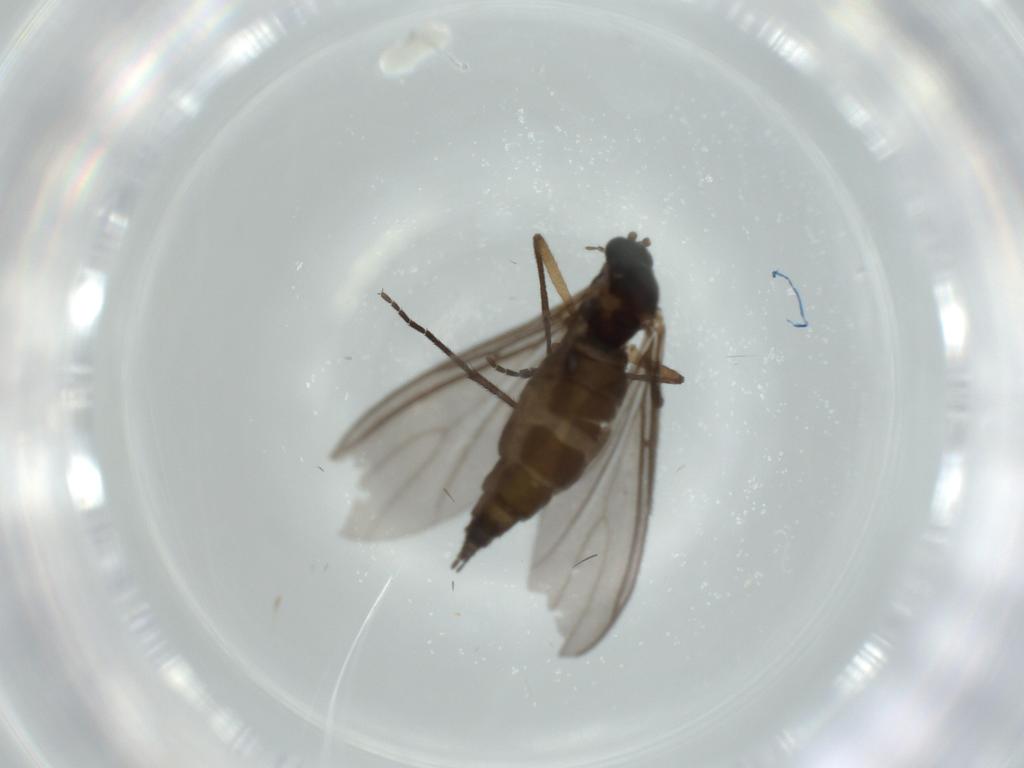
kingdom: Animalia
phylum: Arthropoda
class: Insecta
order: Diptera
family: Sciaridae
